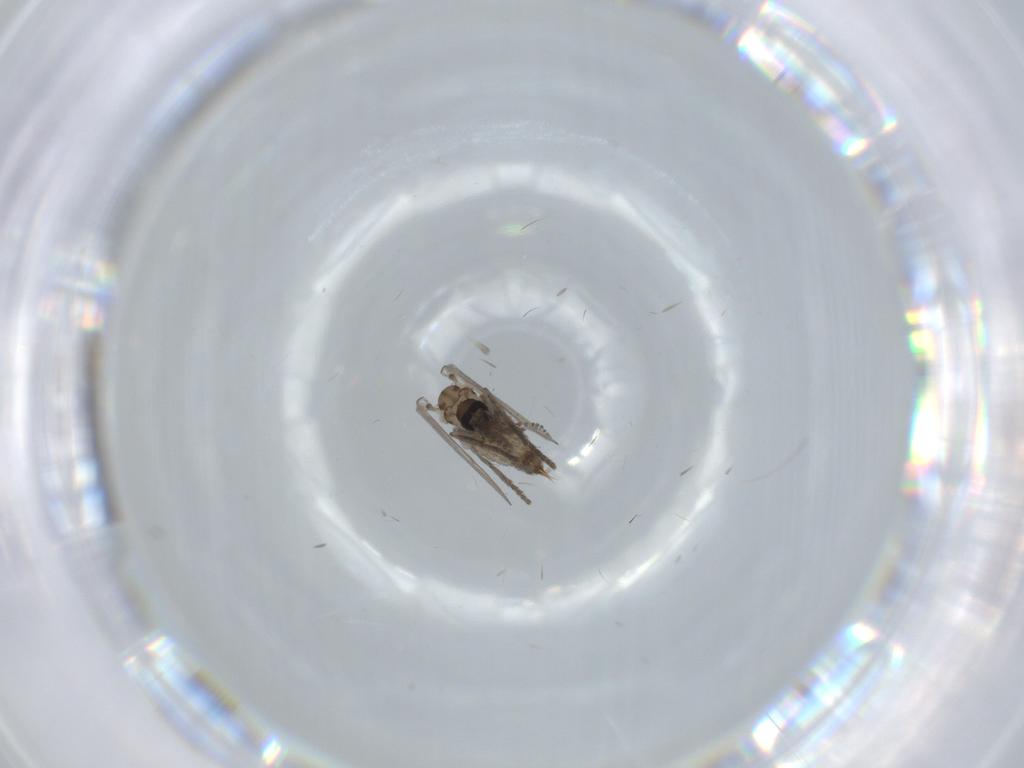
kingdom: Animalia
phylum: Arthropoda
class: Insecta
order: Diptera
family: Psychodidae
